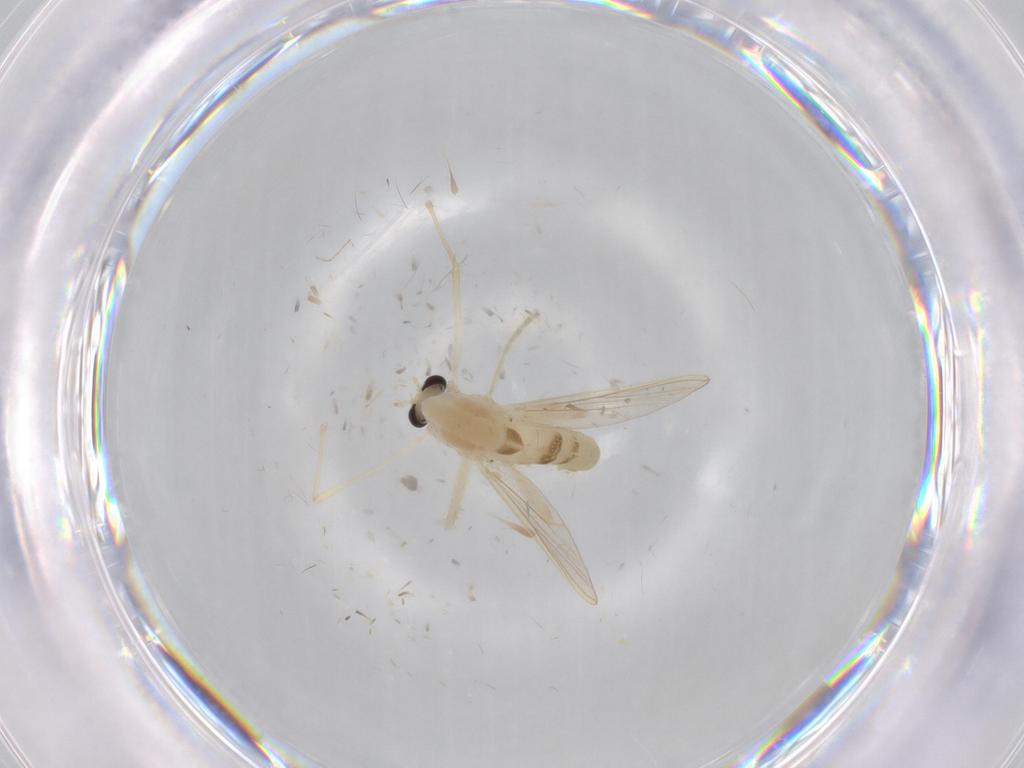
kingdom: Animalia
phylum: Arthropoda
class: Insecta
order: Diptera
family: Chironomidae
